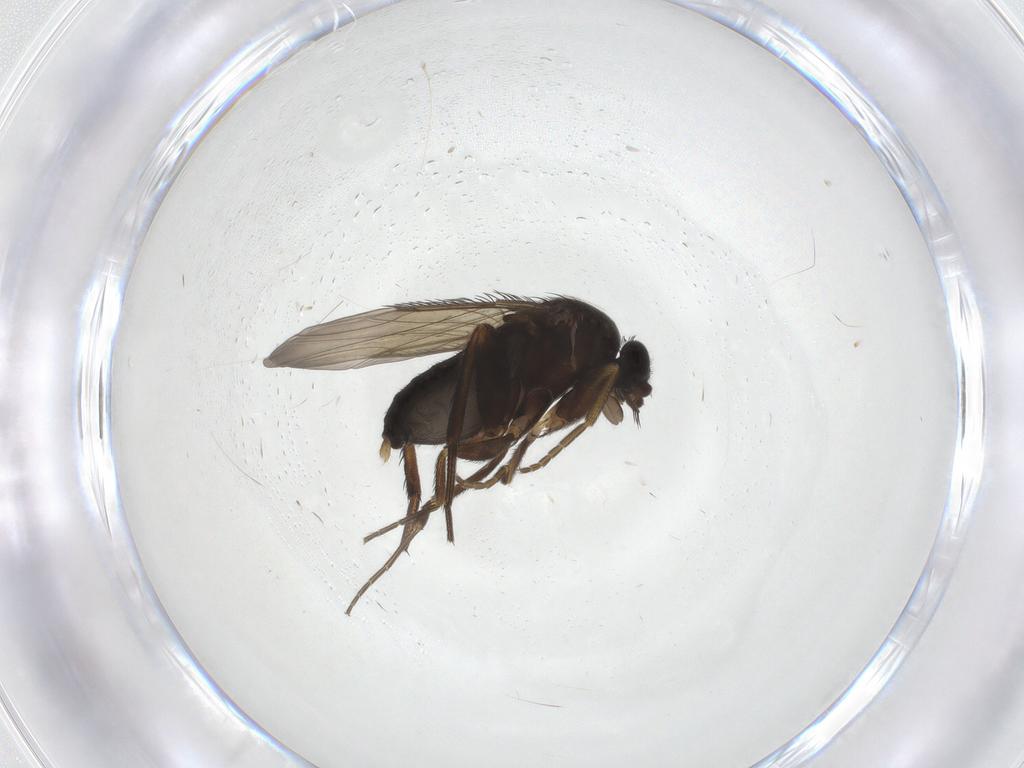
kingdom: Animalia
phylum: Arthropoda
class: Insecta
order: Diptera
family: Phoridae
